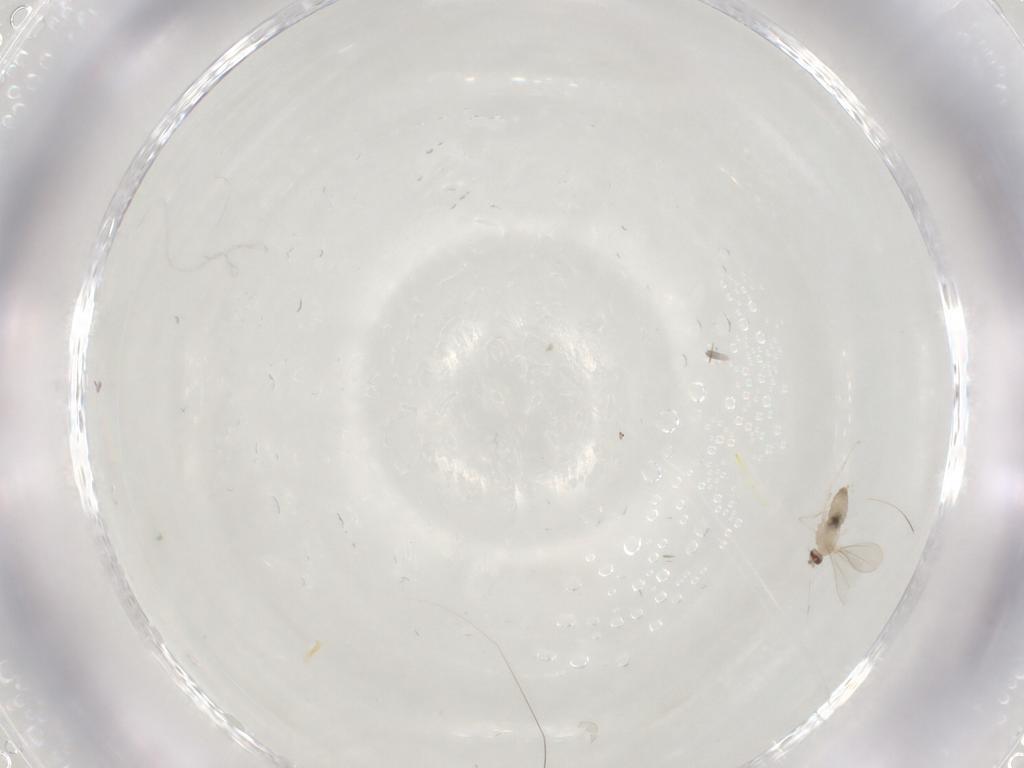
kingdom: Animalia
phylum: Arthropoda
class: Insecta
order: Diptera
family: Cecidomyiidae
